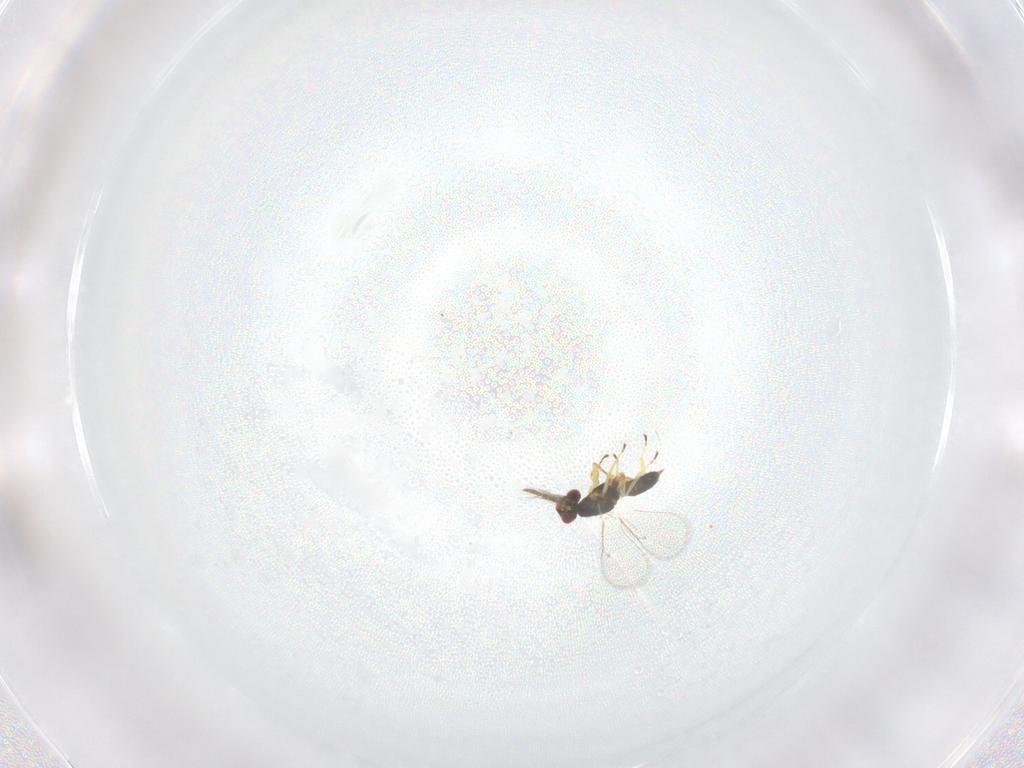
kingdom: Animalia
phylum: Arthropoda
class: Insecta
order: Hymenoptera
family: Eulophidae
